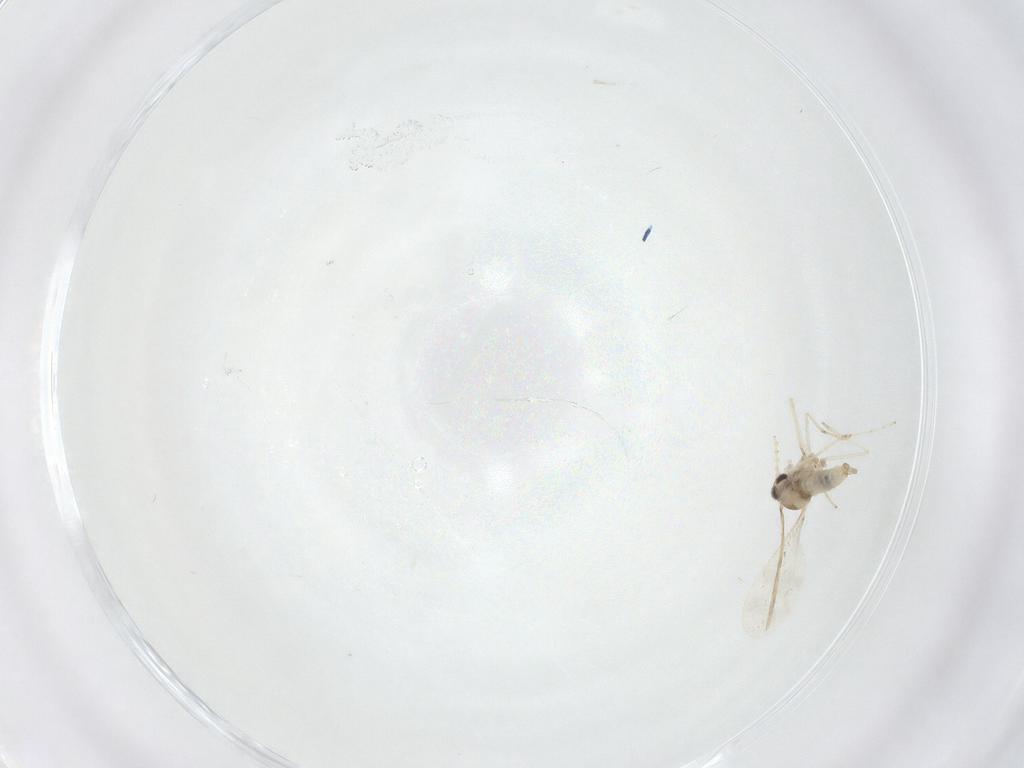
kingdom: Animalia
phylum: Arthropoda
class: Insecta
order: Diptera
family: Cecidomyiidae
